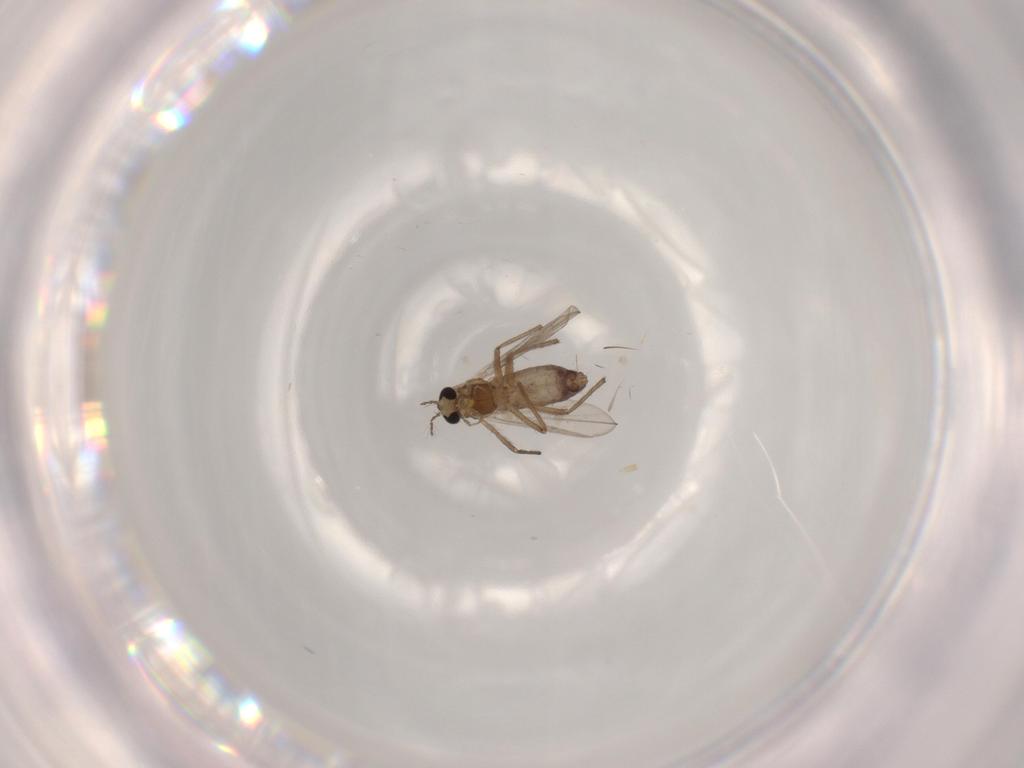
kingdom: Animalia
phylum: Arthropoda
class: Insecta
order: Diptera
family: Chironomidae
